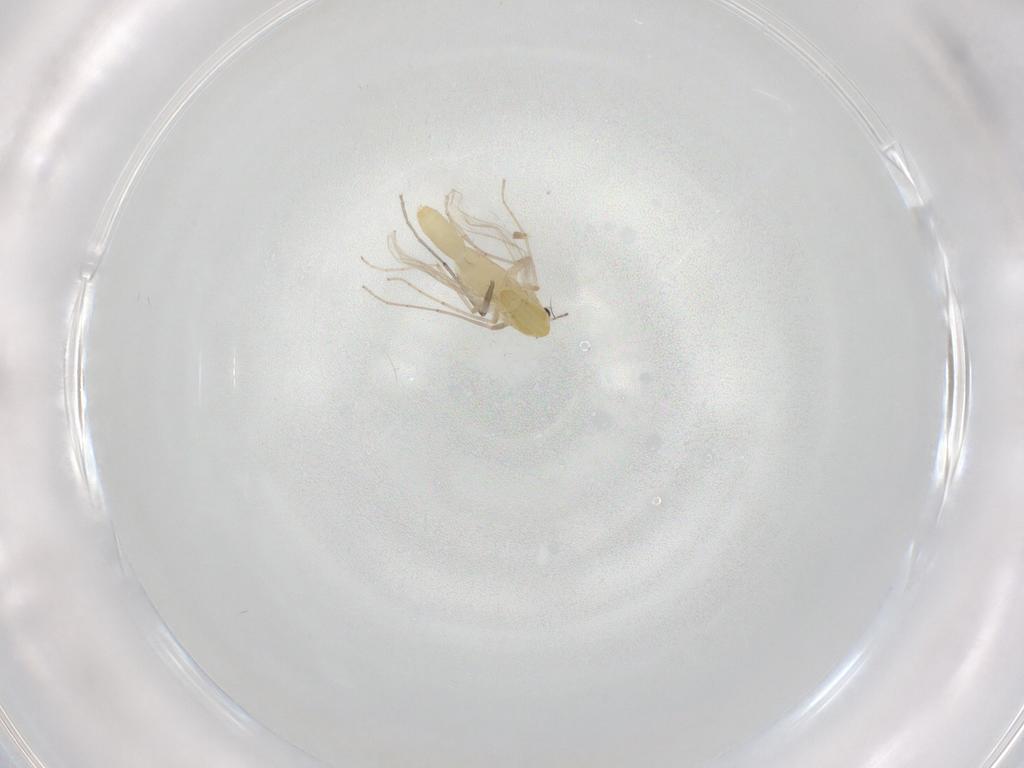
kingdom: Animalia
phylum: Arthropoda
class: Insecta
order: Diptera
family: Chironomidae
